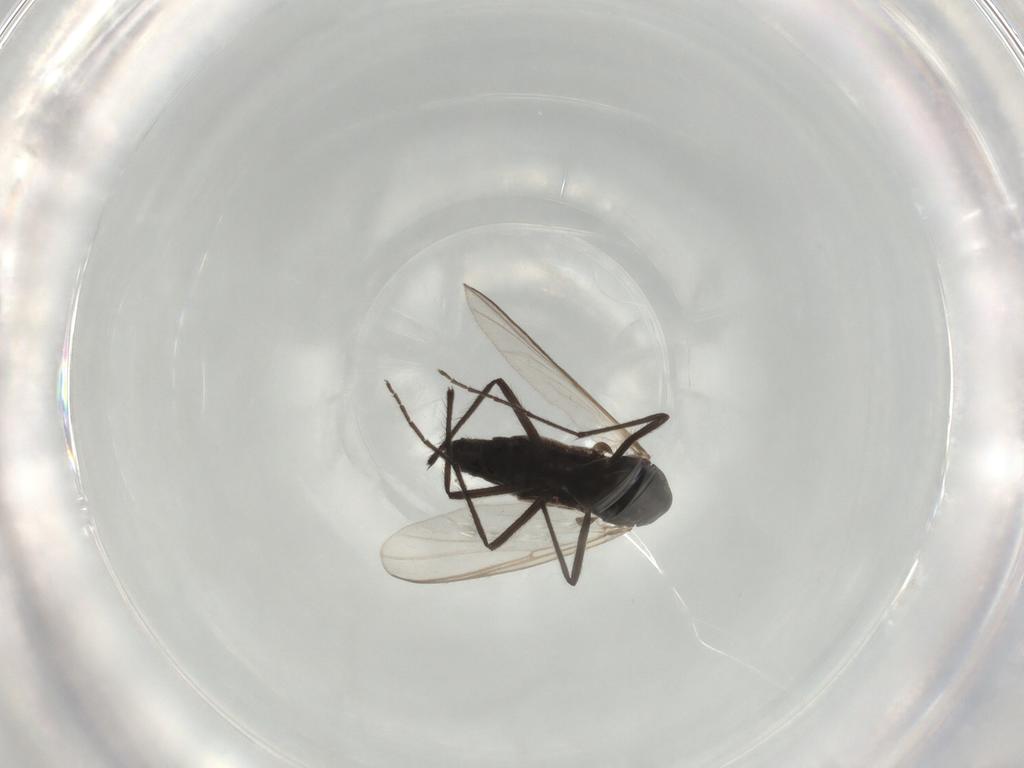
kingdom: Animalia
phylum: Arthropoda
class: Insecta
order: Diptera
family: Chironomidae
